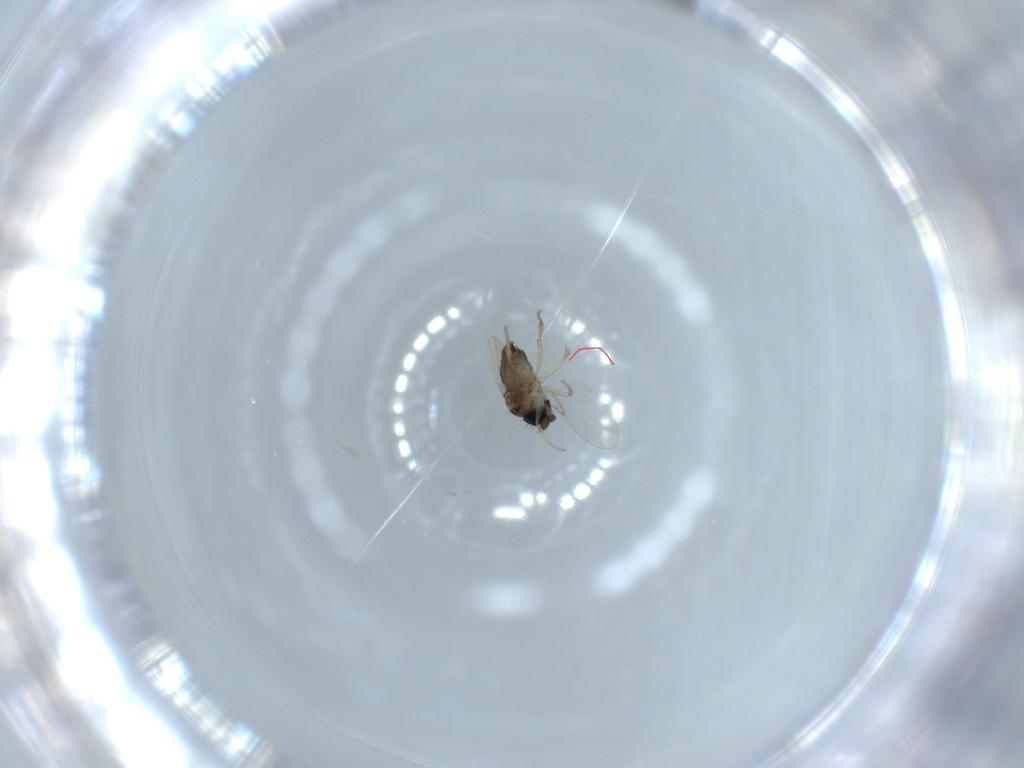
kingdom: Animalia
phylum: Arthropoda
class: Insecta
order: Diptera
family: Phoridae
